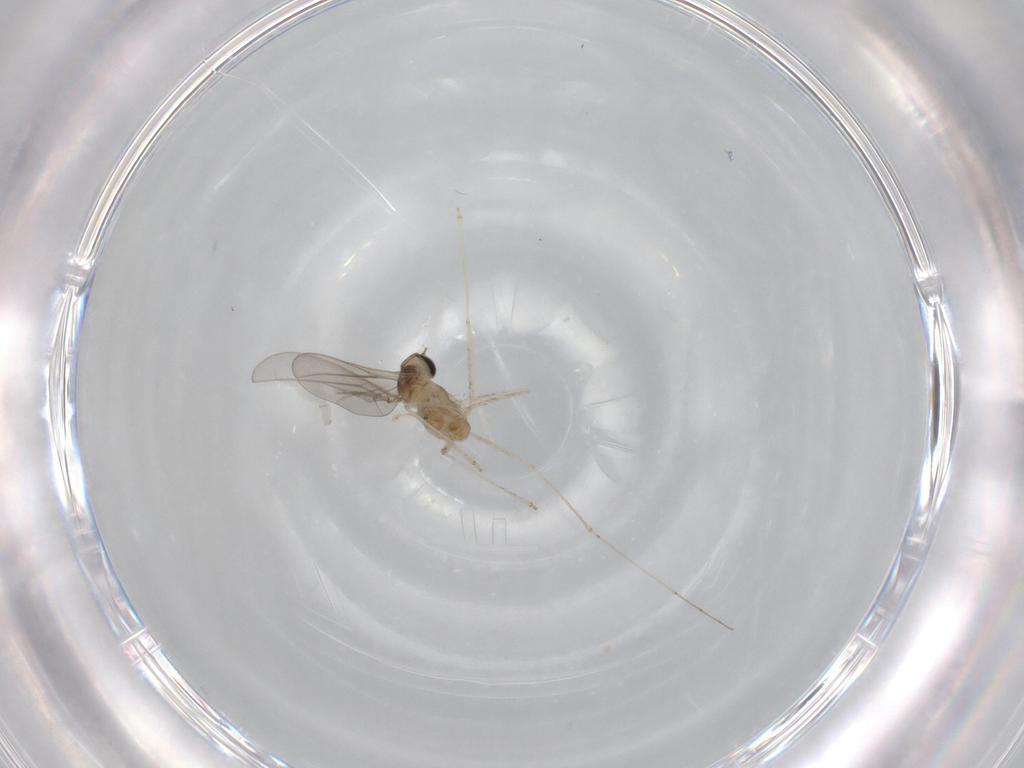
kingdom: Animalia
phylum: Arthropoda
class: Insecta
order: Diptera
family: Cecidomyiidae
